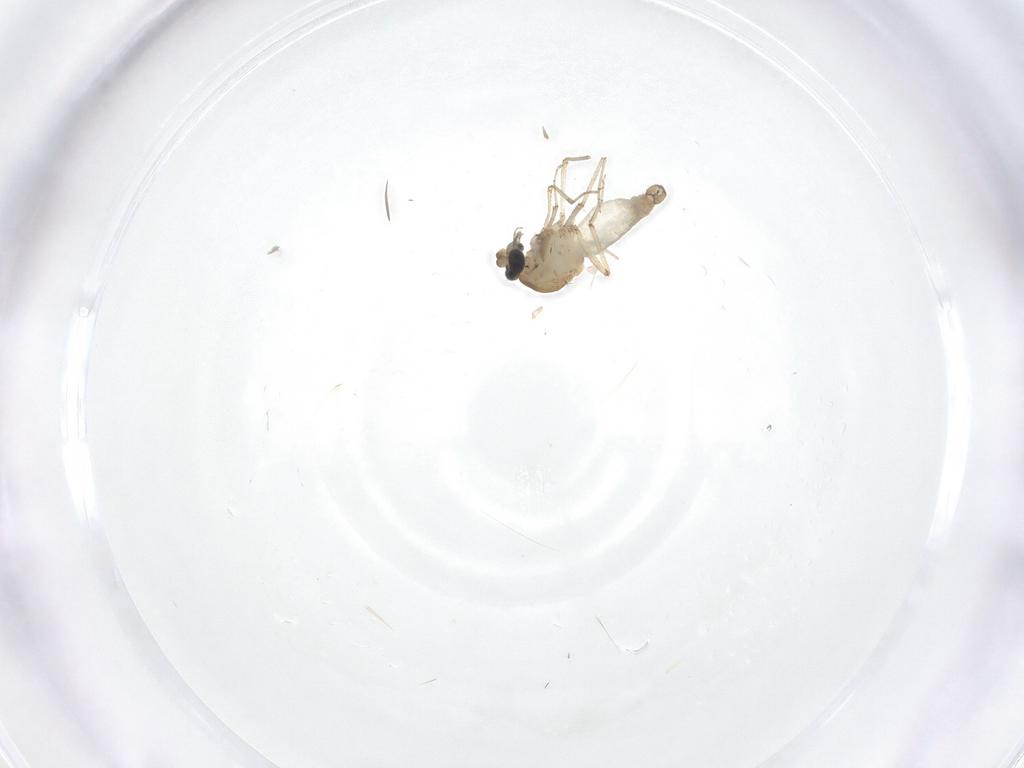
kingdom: Animalia
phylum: Arthropoda
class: Insecta
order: Diptera
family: Ceratopogonidae
